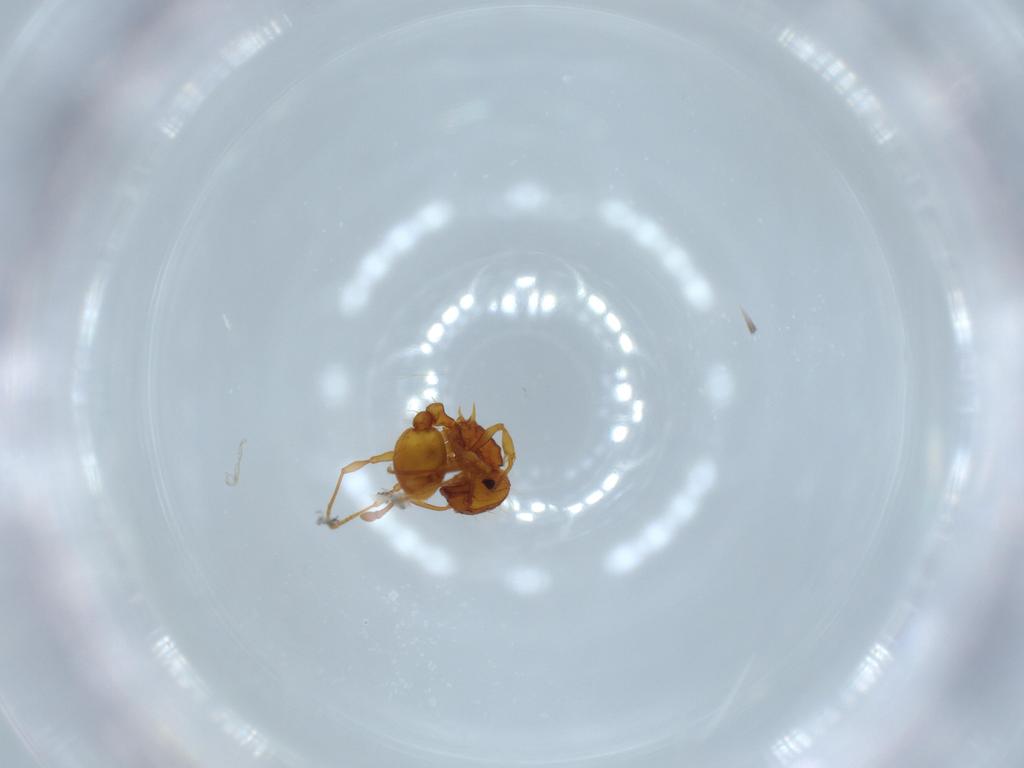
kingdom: Animalia
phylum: Arthropoda
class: Insecta
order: Hymenoptera
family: Formicidae
